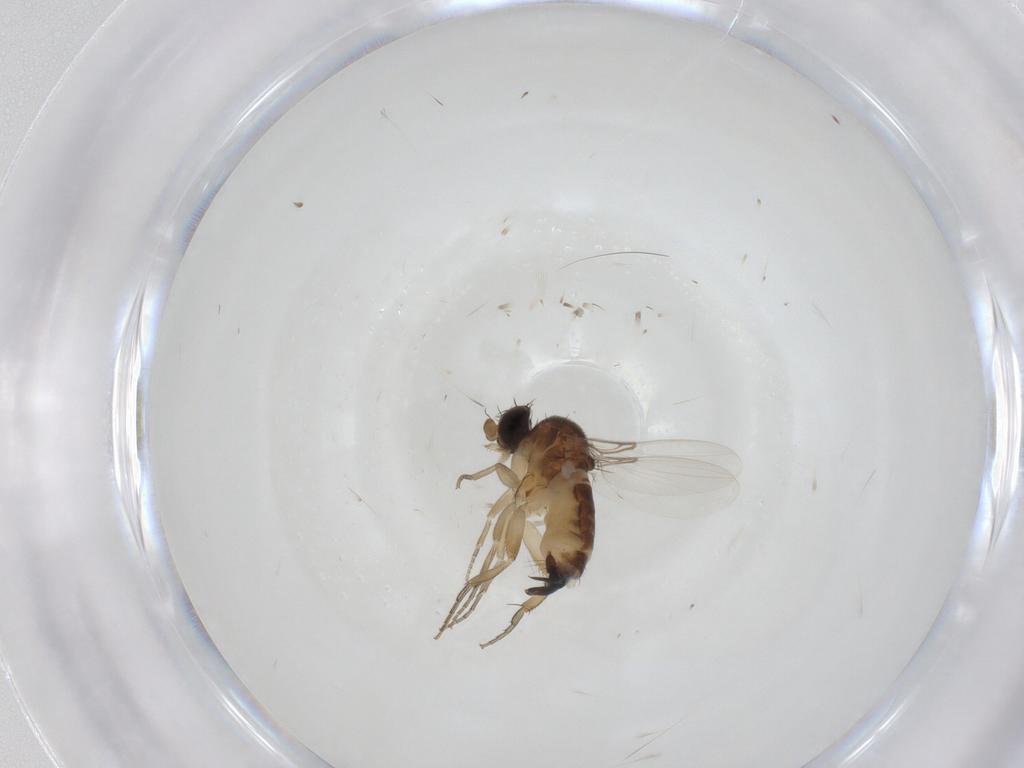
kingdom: Animalia
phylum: Arthropoda
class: Insecta
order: Diptera
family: Phoridae
